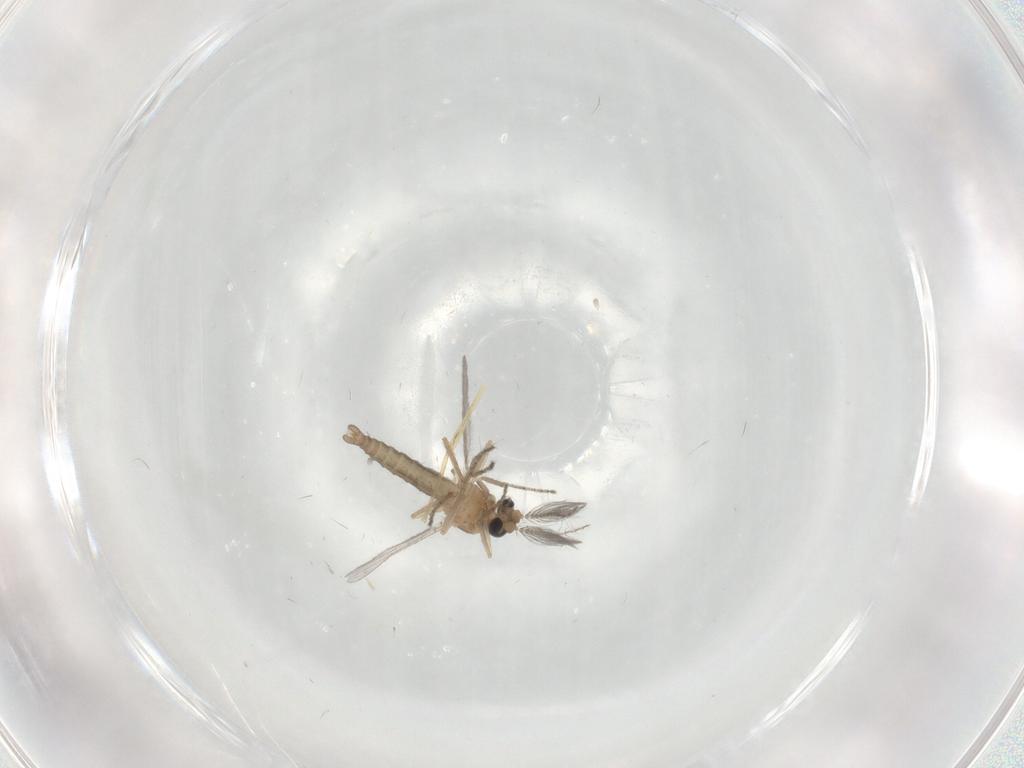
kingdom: Animalia
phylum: Arthropoda
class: Insecta
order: Diptera
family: Ceratopogonidae
